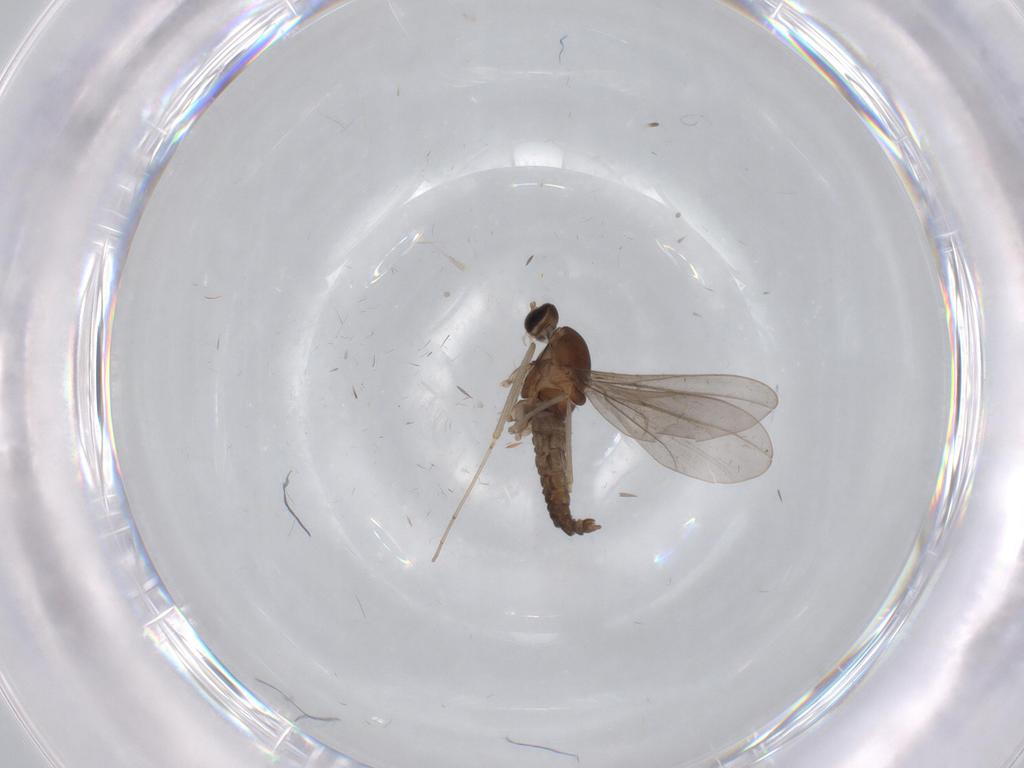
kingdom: Animalia
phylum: Arthropoda
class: Insecta
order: Diptera
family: Cecidomyiidae
